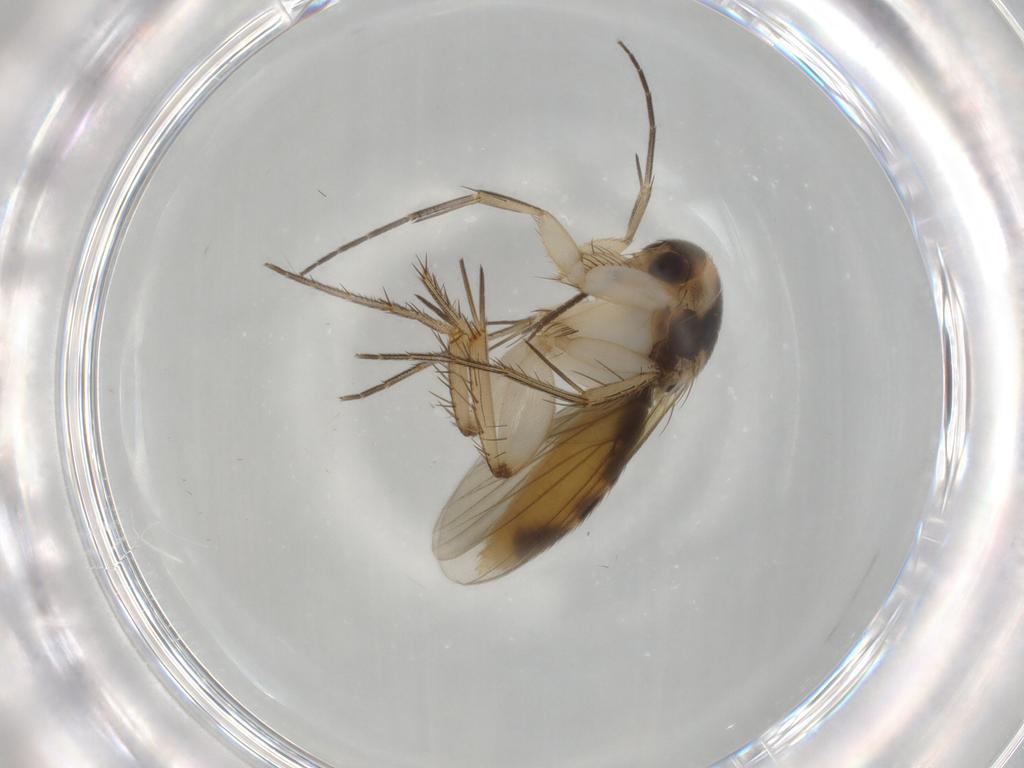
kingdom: Animalia
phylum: Arthropoda
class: Insecta
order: Diptera
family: Mycetophilidae
